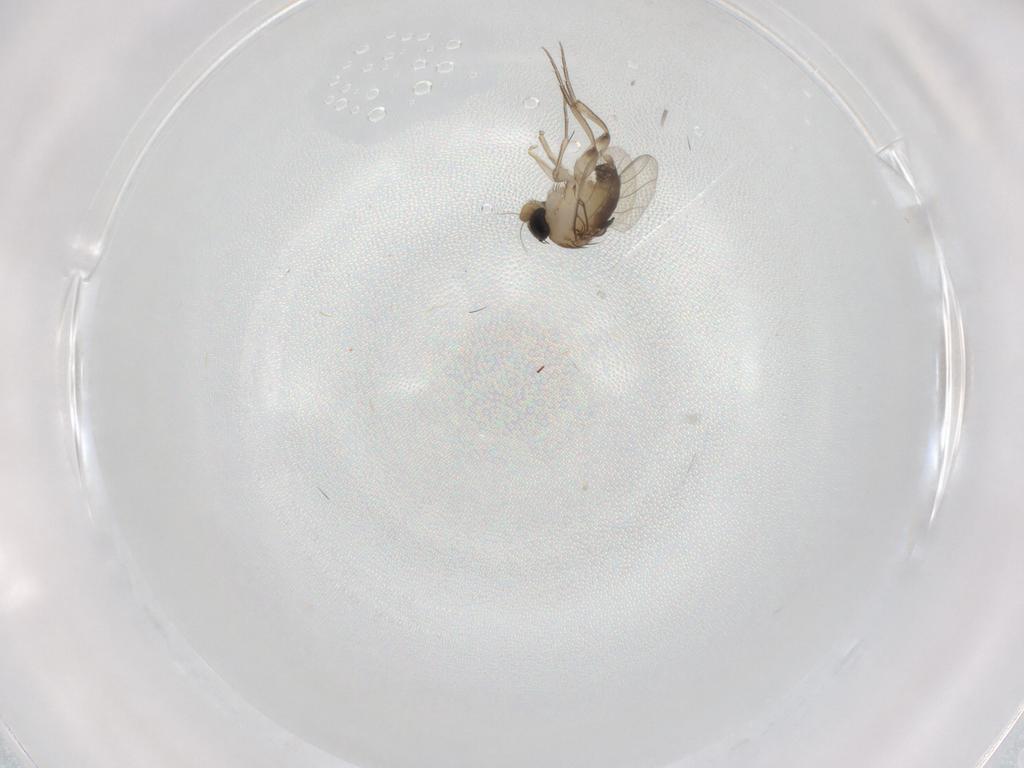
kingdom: Animalia
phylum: Arthropoda
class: Insecta
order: Diptera
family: Phoridae
